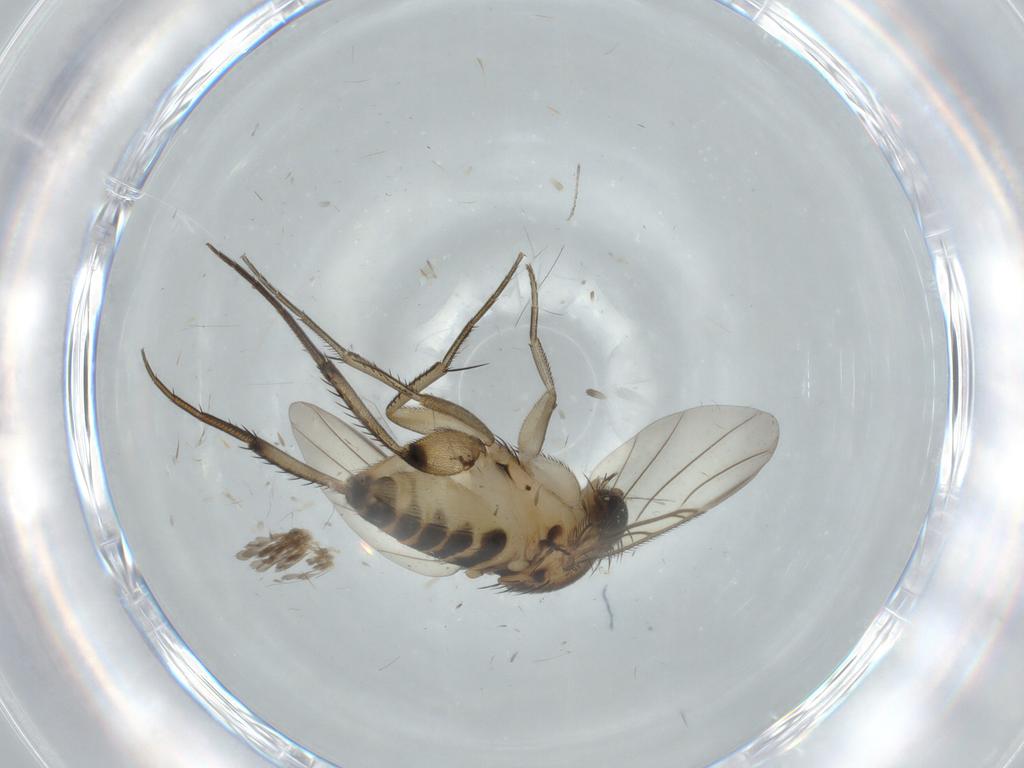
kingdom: Animalia
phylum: Arthropoda
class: Insecta
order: Diptera
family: Phoridae
